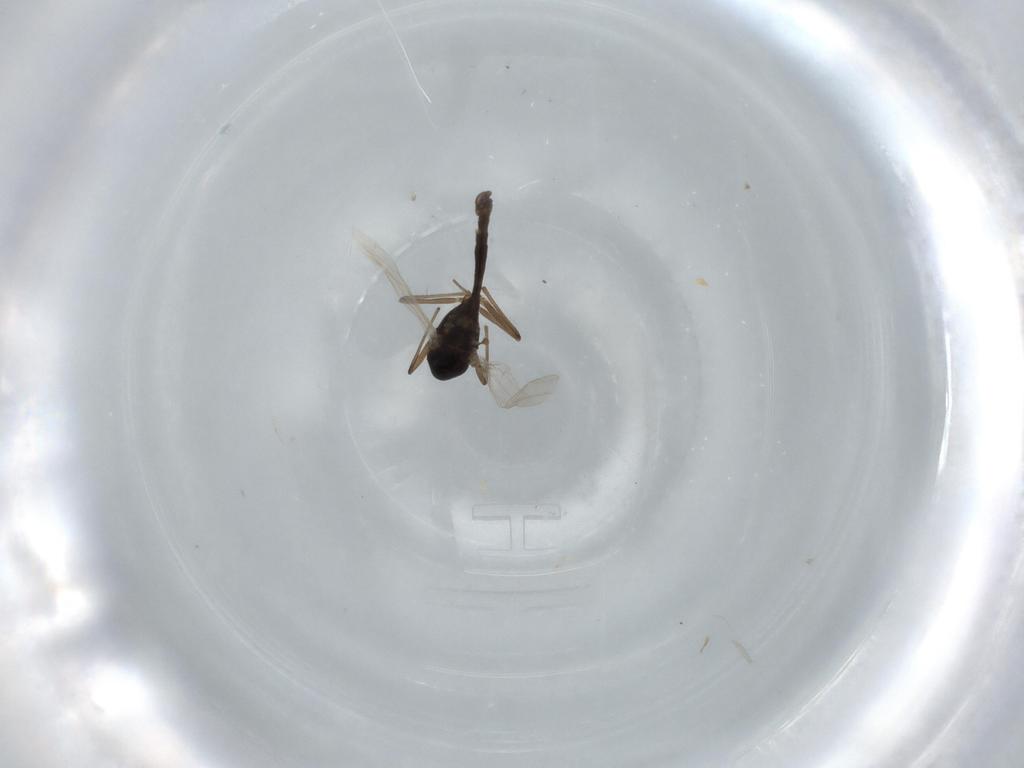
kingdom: Animalia
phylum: Arthropoda
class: Insecta
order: Diptera
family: Chironomidae
